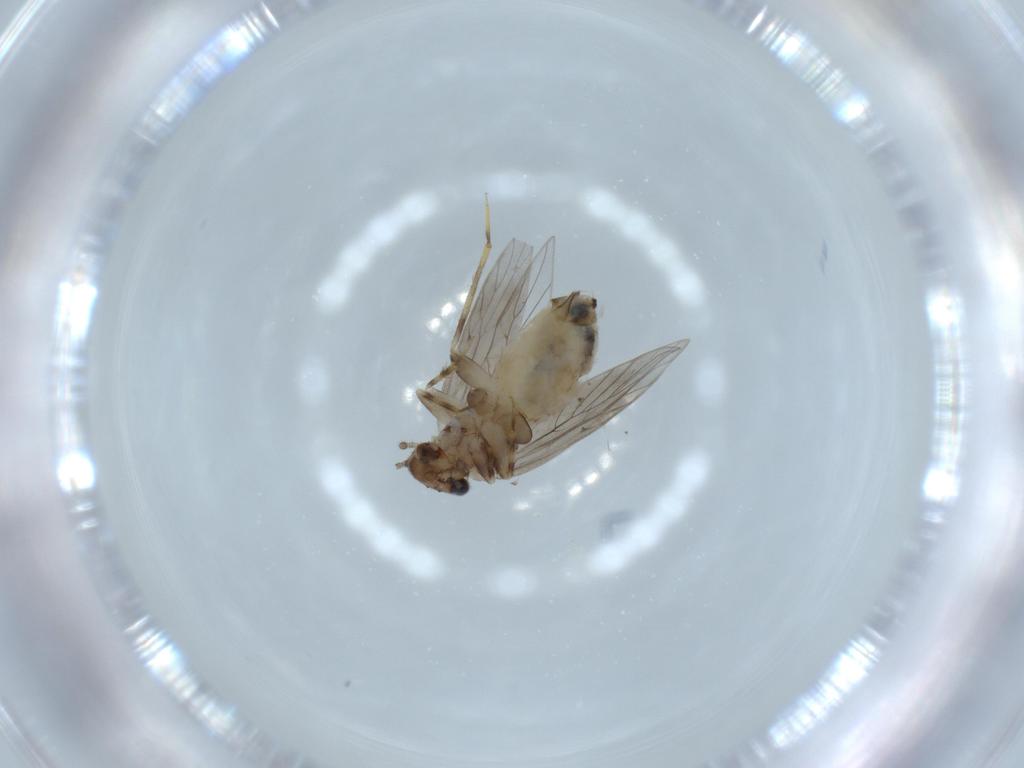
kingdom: Animalia
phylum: Arthropoda
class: Insecta
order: Psocodea
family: Lepidopsocidae
